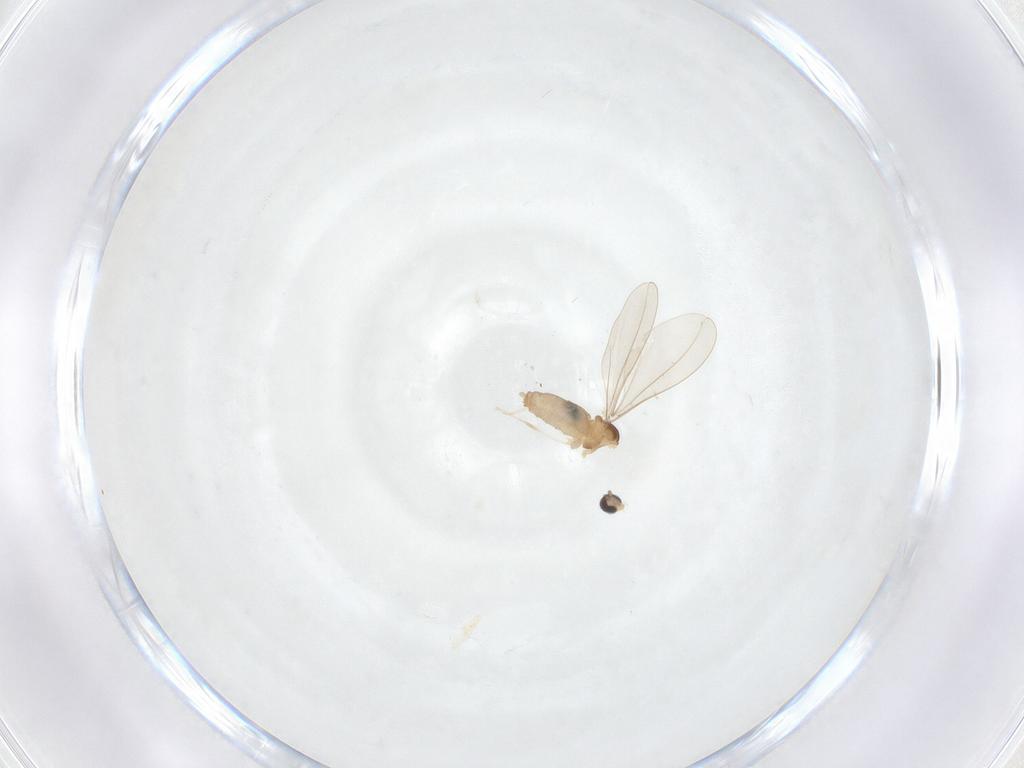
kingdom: Animalia
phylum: Arthropoda
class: Insecta
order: Diptera
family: Cecidomyiidae
